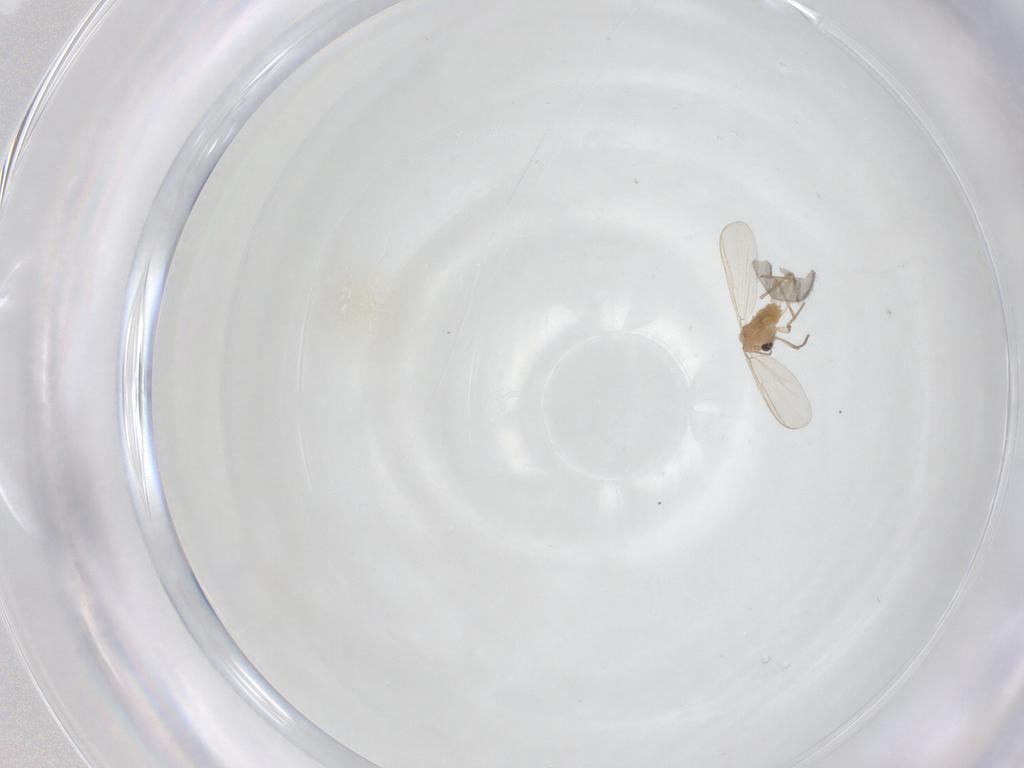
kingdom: Animalia
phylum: Arthropoda
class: Insecta
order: Diptera
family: Chironomidae
